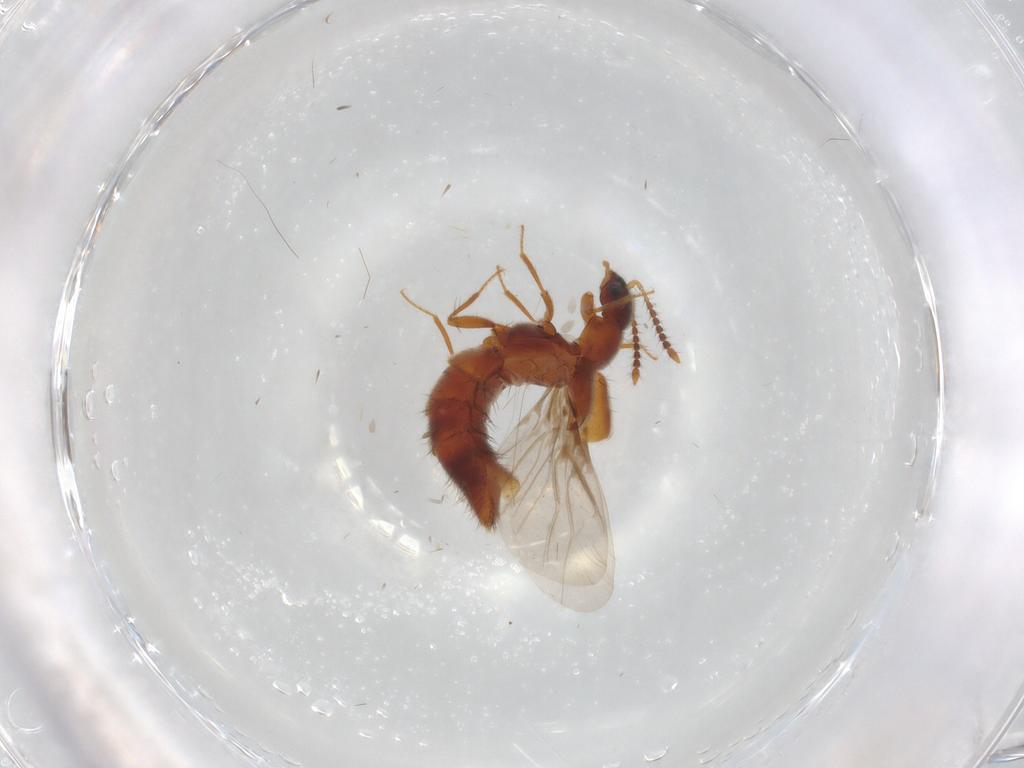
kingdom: Animalia
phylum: Arthropoda
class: Insecta
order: Coleoptera
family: Staphylinidae
